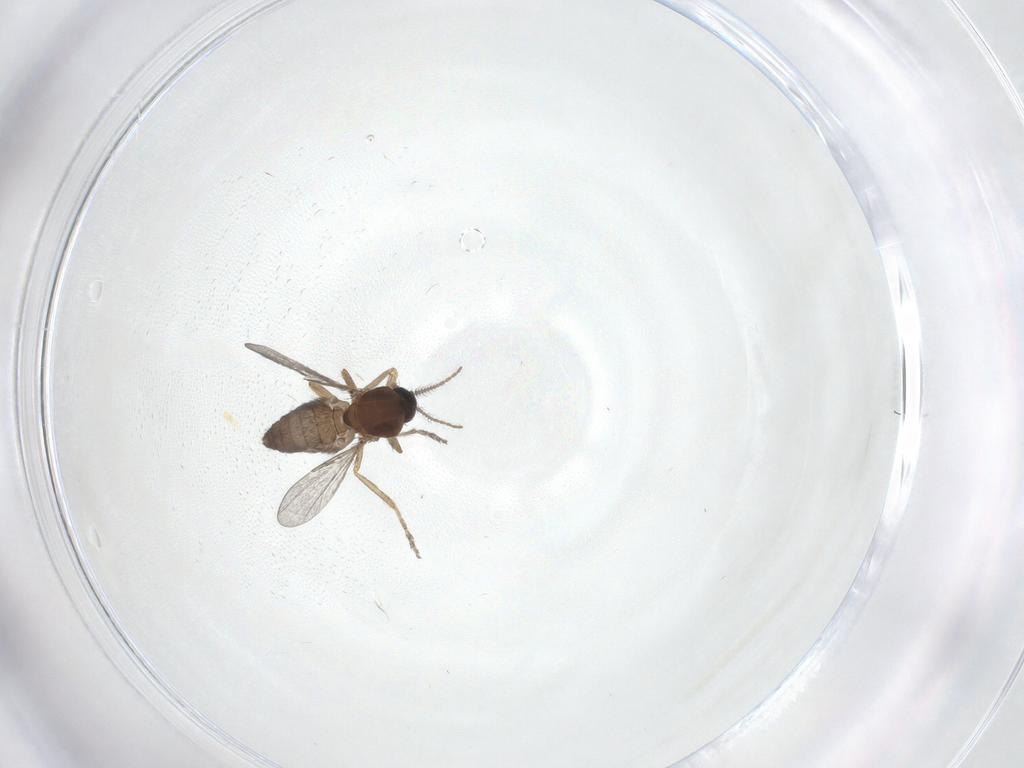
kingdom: Animalia
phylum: Arthropoda
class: Insecta
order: Diptera
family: Ceratopogonidae
